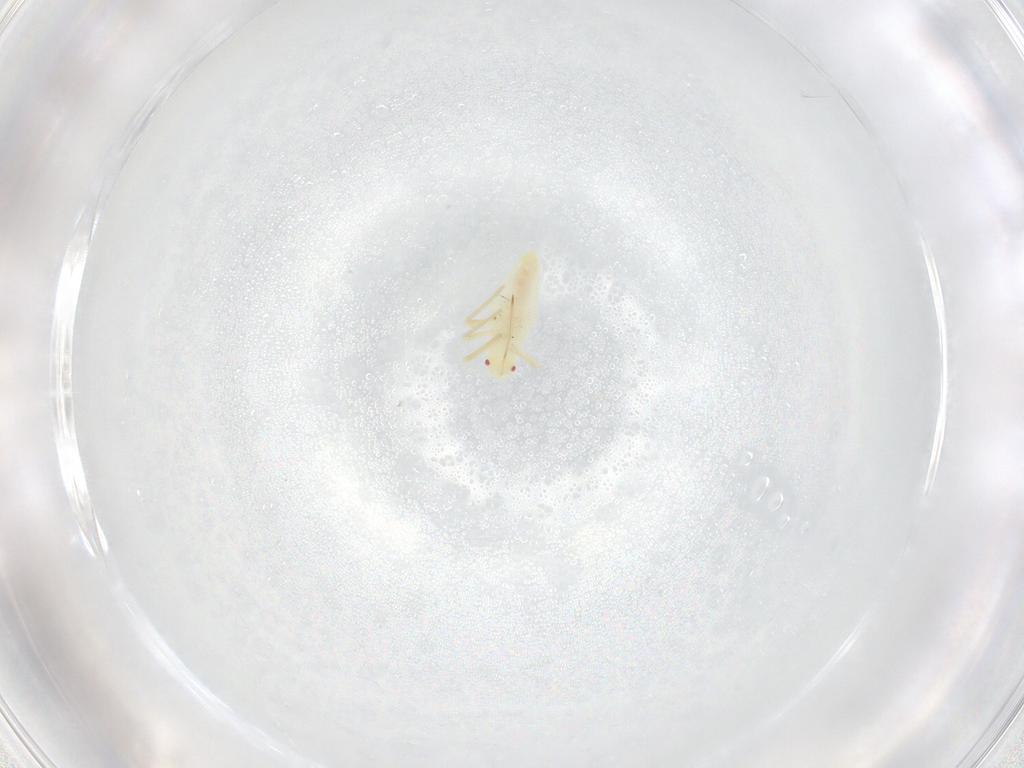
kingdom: Animalia
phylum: Arthropoda
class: Insecta
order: Hemiptera
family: Miridae
